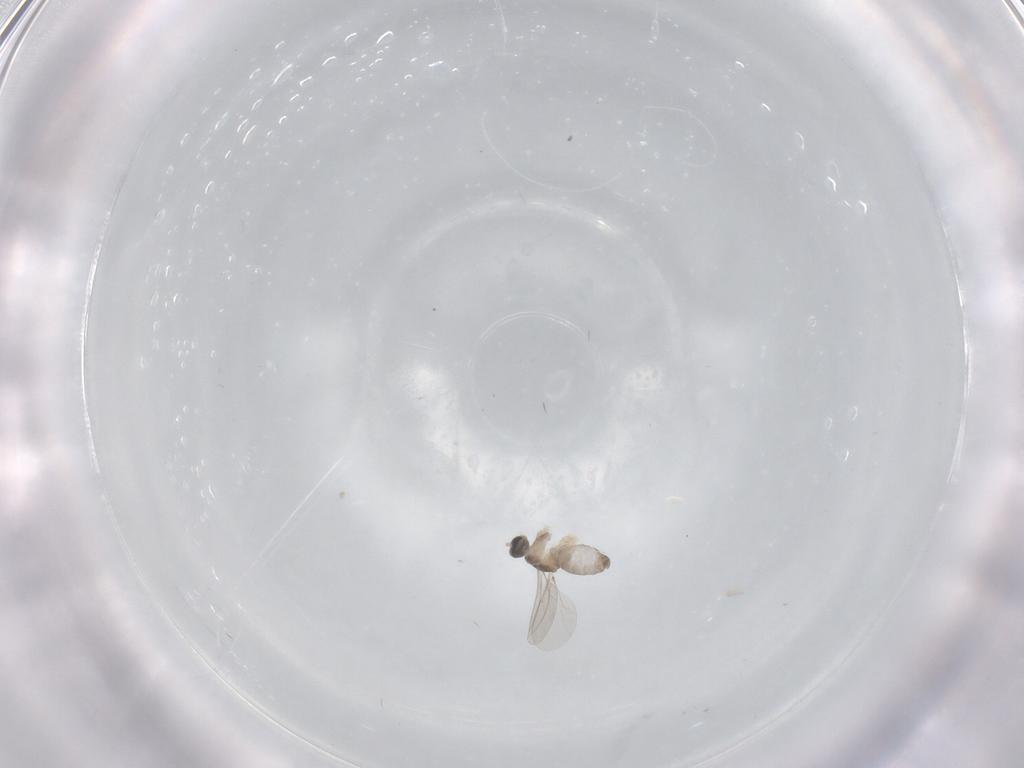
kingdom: Animalia
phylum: Arthropoda
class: Insecta
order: Diptera
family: Cecidomyiidae
